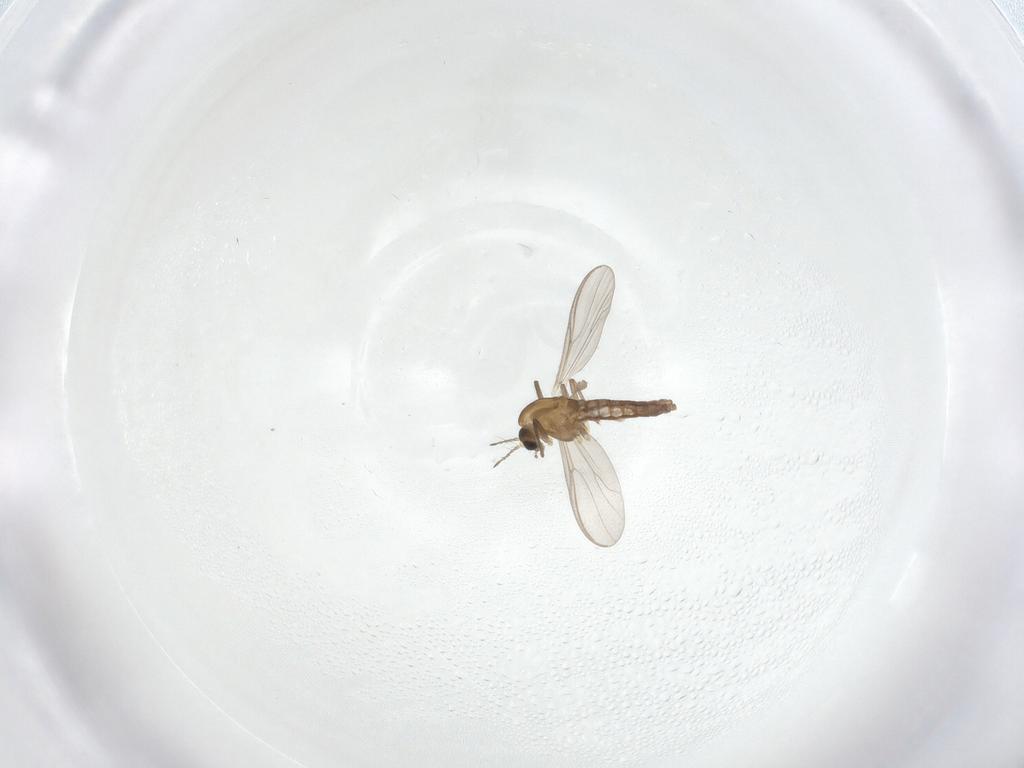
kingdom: Animalia
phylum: Arthropoda
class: Insecta
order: Diptera
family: Chironomidae
